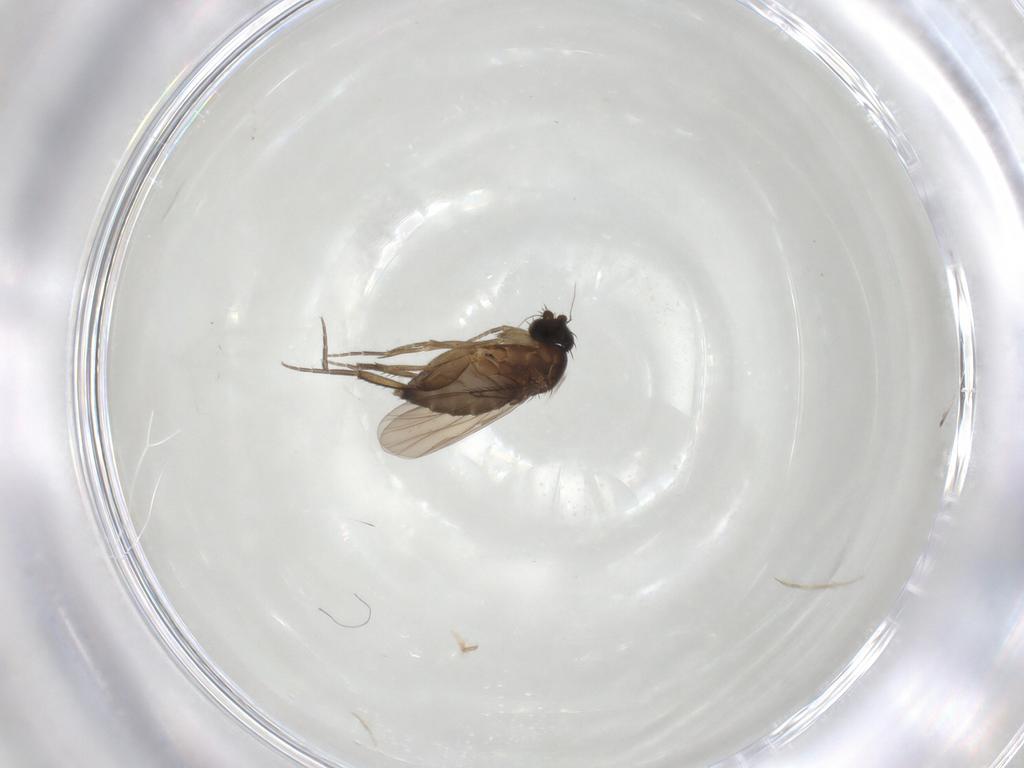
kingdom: Animalia
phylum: Arthropoda
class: Insecta
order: Diptera
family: Phoridae
